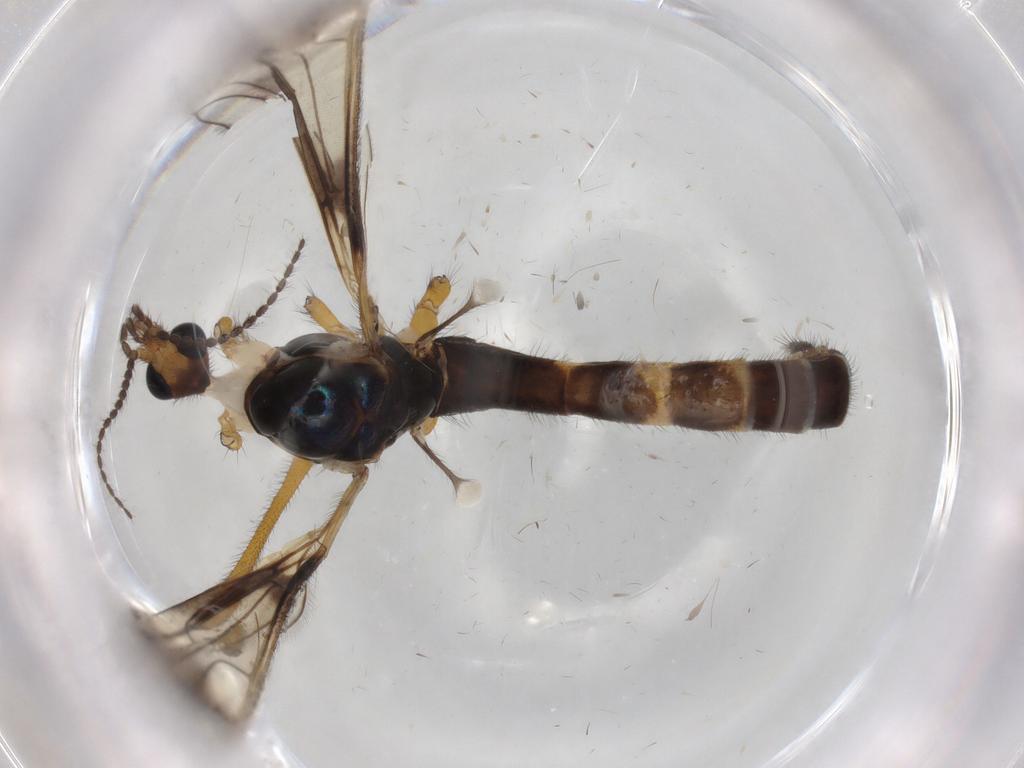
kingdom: Animalia
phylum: Arthropoda
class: Insecta
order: Diptera
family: Limoniidae
